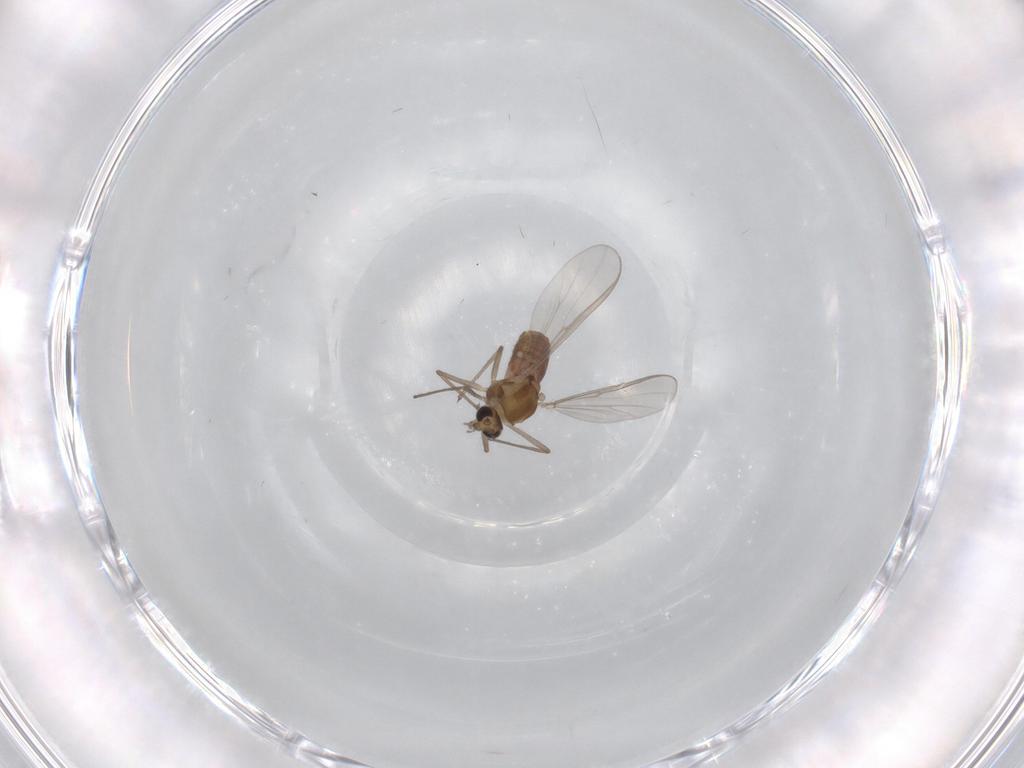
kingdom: Animalia
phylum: Arthropoda
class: Insecta
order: Diptera
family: Chironomidae
